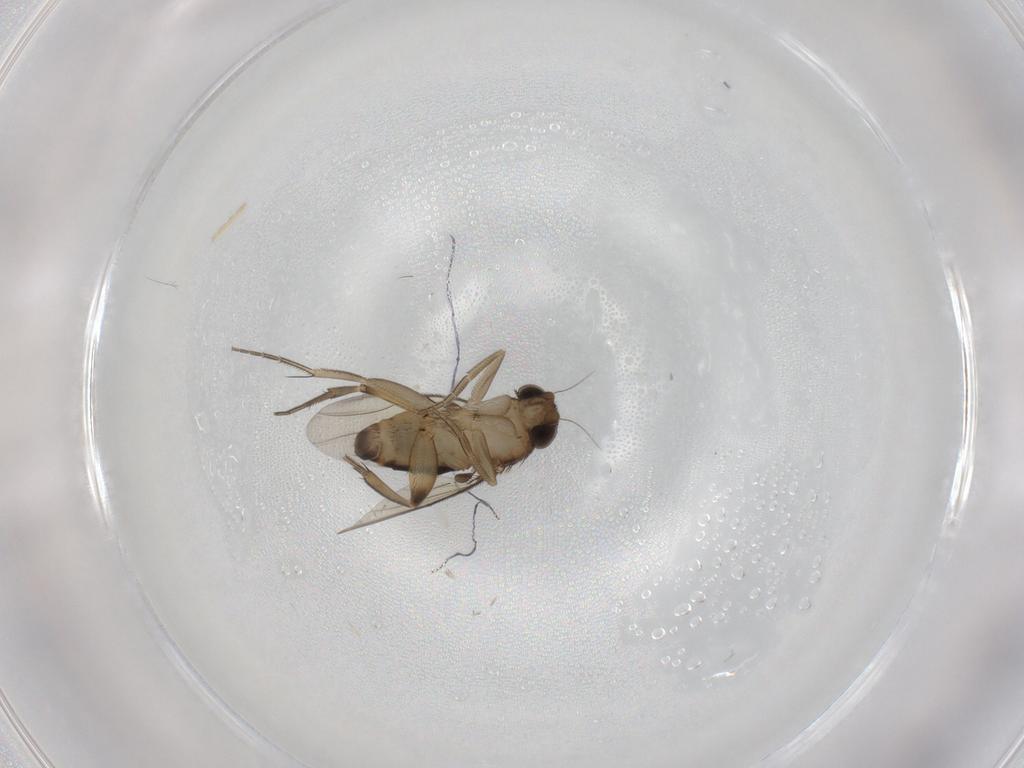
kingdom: Animalia
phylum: Arthropoda
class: Insecta
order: Diptera
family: Phoridae
